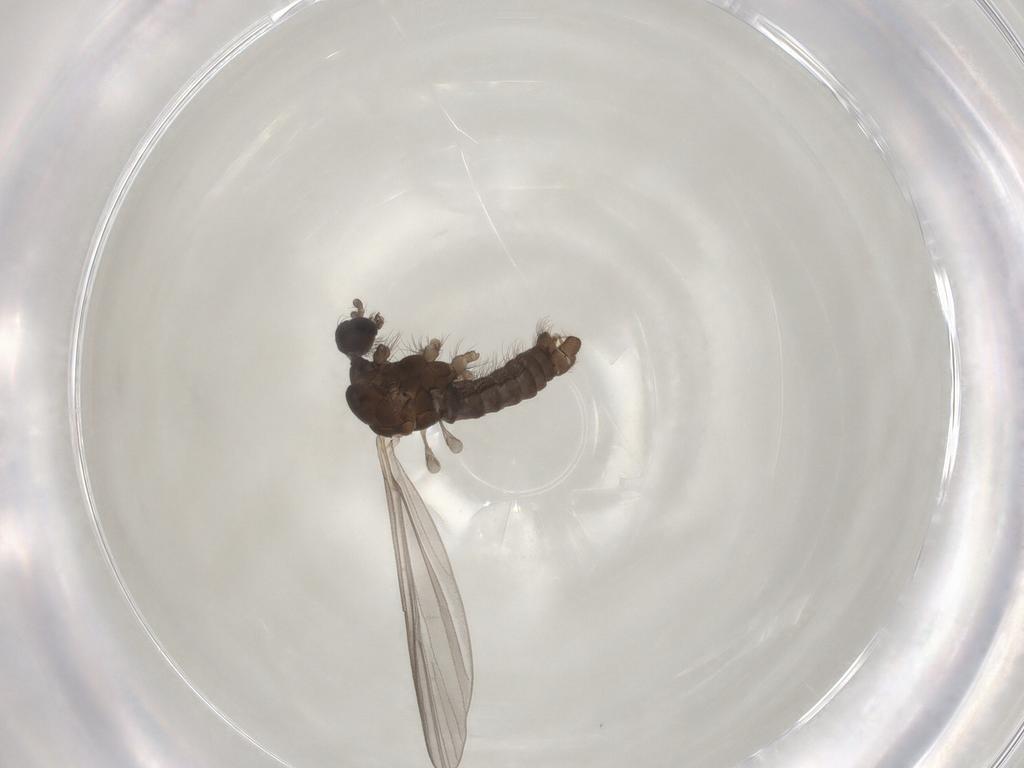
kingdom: Animalia
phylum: Arthropoda
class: Insecta
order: Diptera
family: Limoniidae
